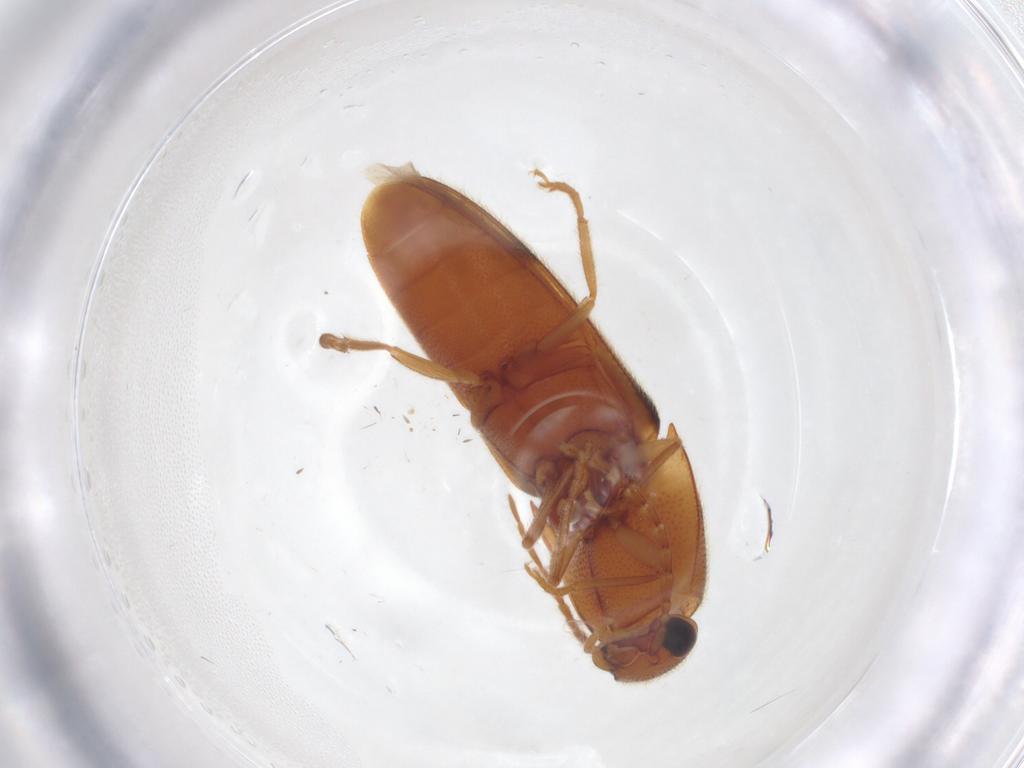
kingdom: Animalia
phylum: Arthropoda
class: Insecta
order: Coleoptera
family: Elateridae
